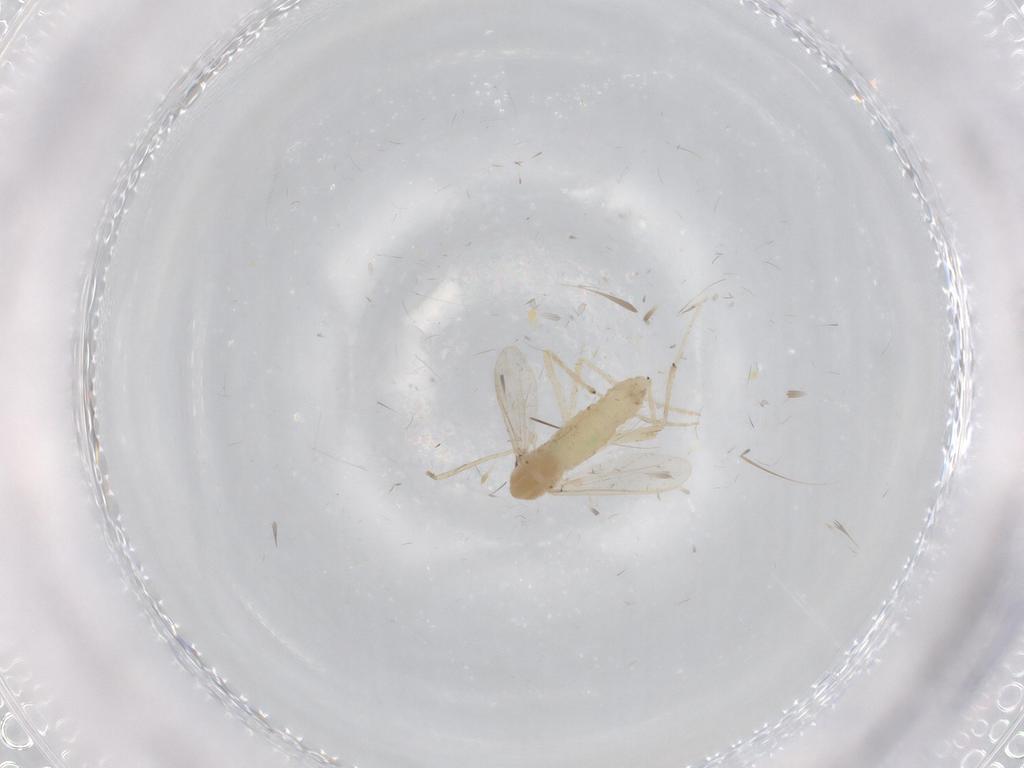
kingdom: Animalia
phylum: Arthropoda
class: Insecta
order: Diptera
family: Chironomidae
